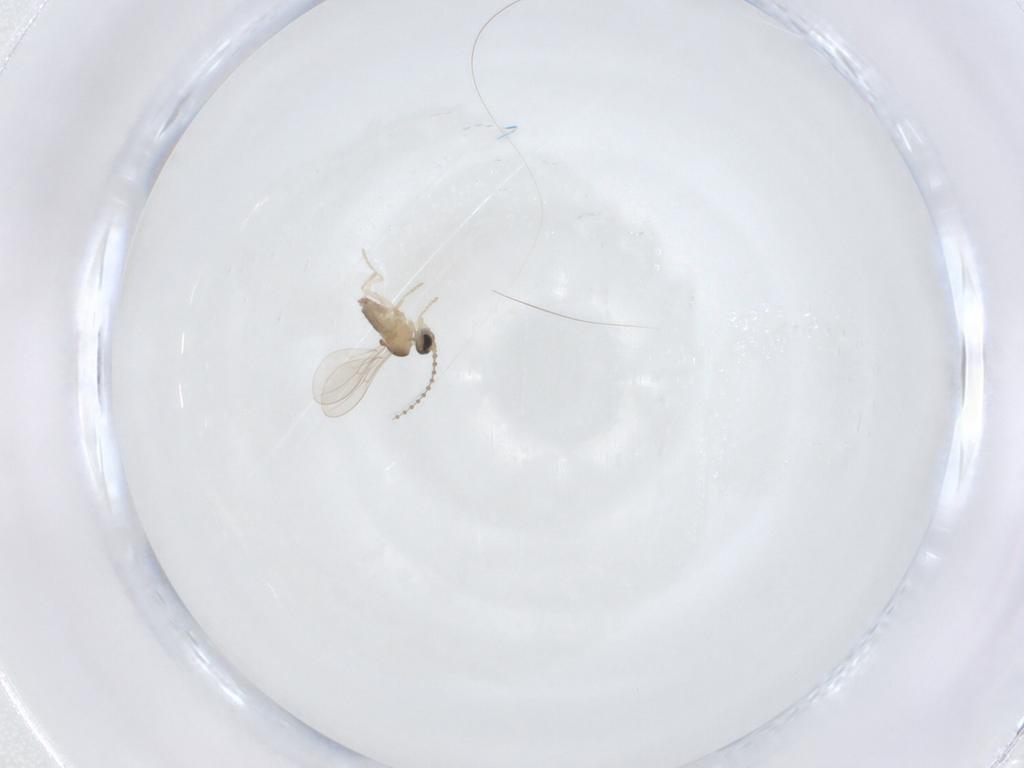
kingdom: Animalia
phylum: Arthropoda
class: Insecta
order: Diptera
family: Cecidomyiidae
